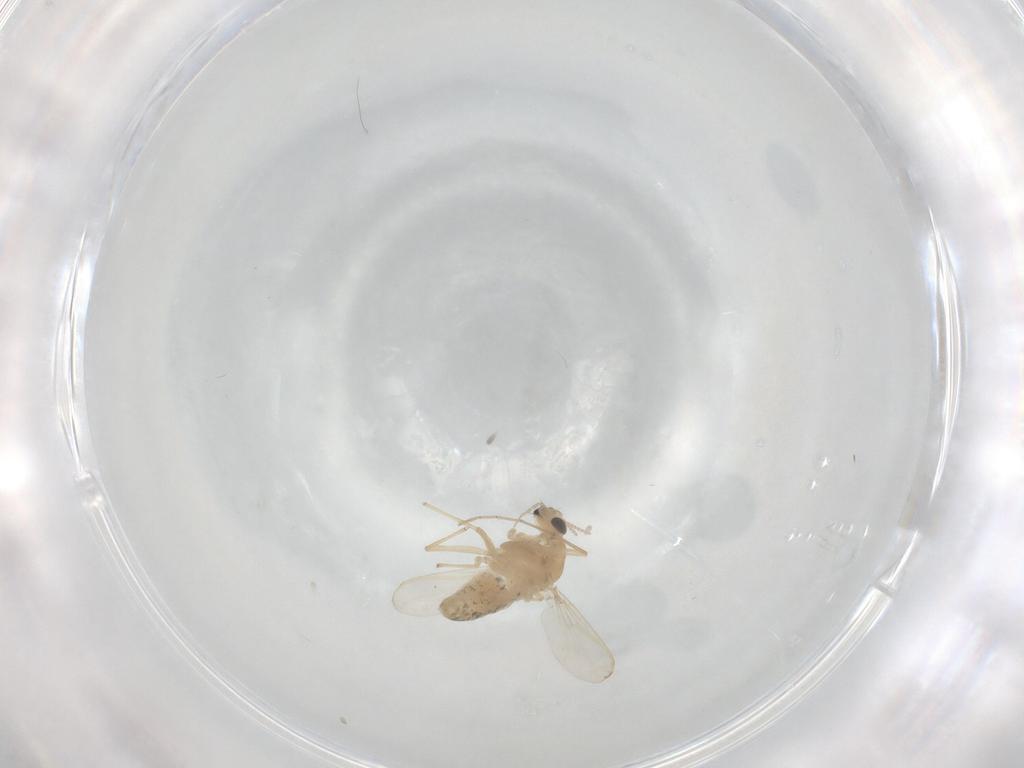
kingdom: Animalia
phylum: Arthropoda
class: Insecta
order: Diptera
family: Chironomidae
